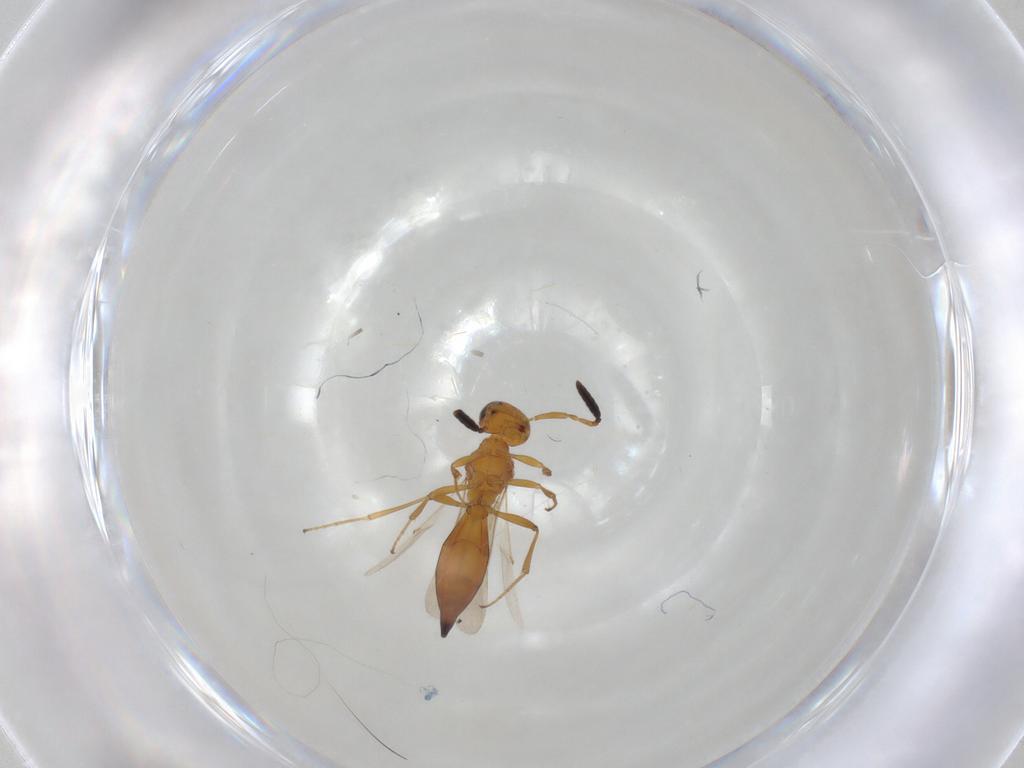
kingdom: Animalia
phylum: Arthropoda
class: Insecta
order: Hymenoptera
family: Scelionidae
